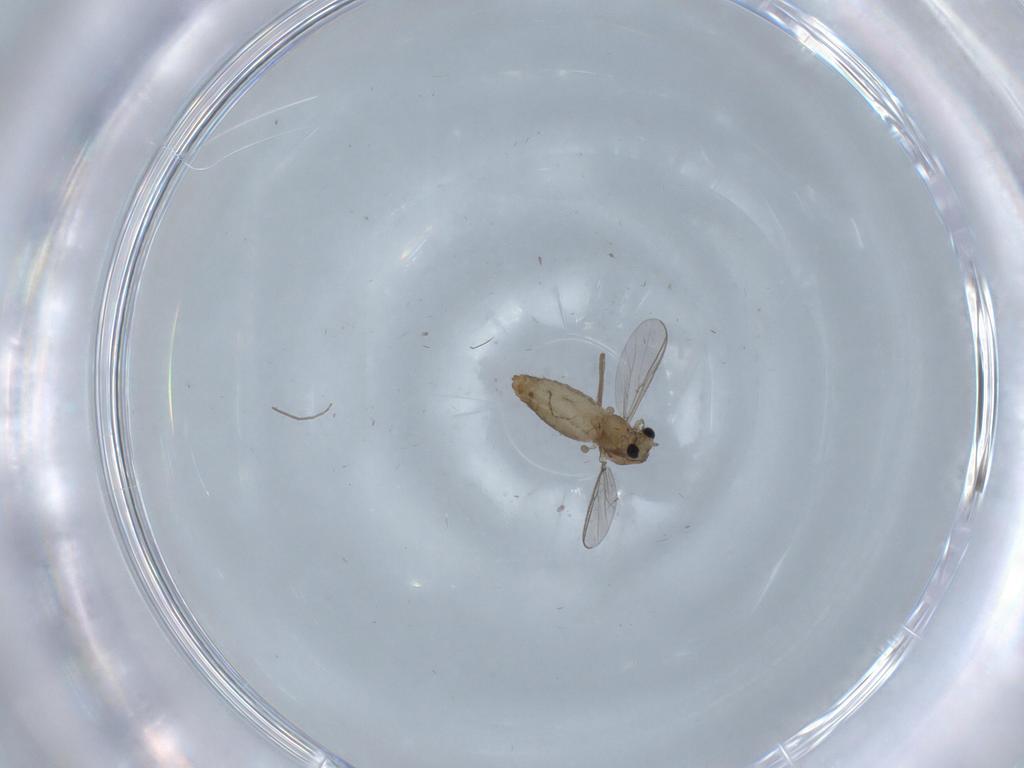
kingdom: Animalia
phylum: Arthropoda
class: Insecta
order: Diptera
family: Chironomidae
